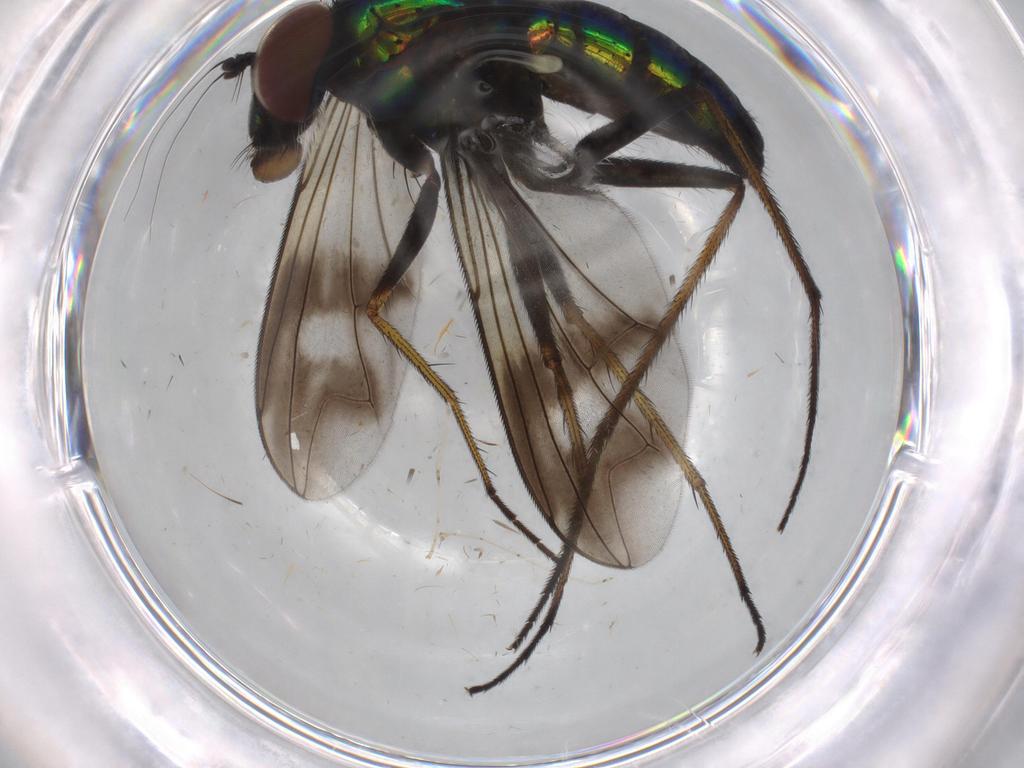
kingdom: Animalia
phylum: Arthropoda
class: Insecta
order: Diptera
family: Dolichopodidae
